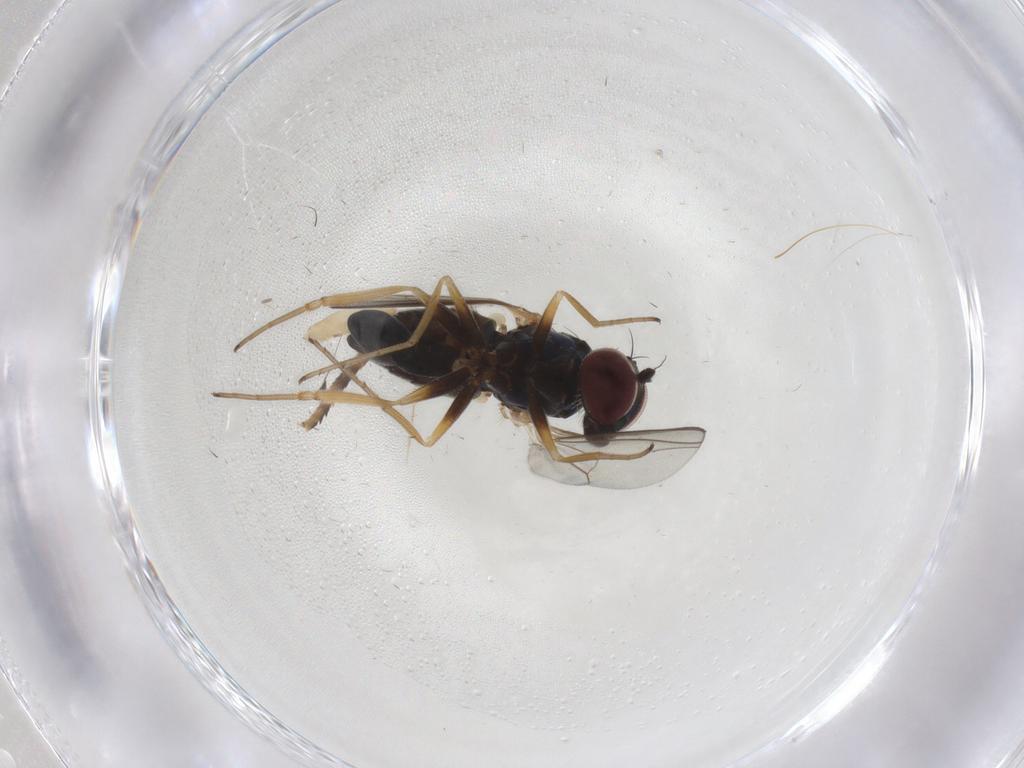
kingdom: Animalia
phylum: Arthropoda
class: Insecta
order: Diptera
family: Dolichopodidae
